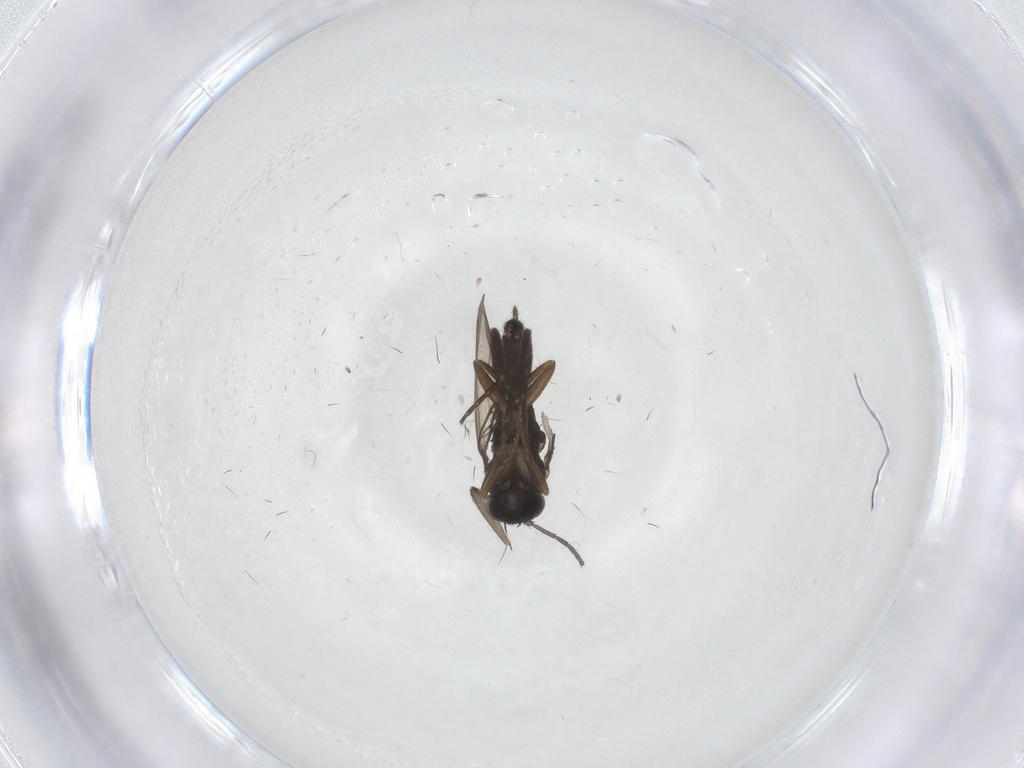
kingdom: Animalia
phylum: Arthropoda
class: Insecta
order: Diptera
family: Phoridae
